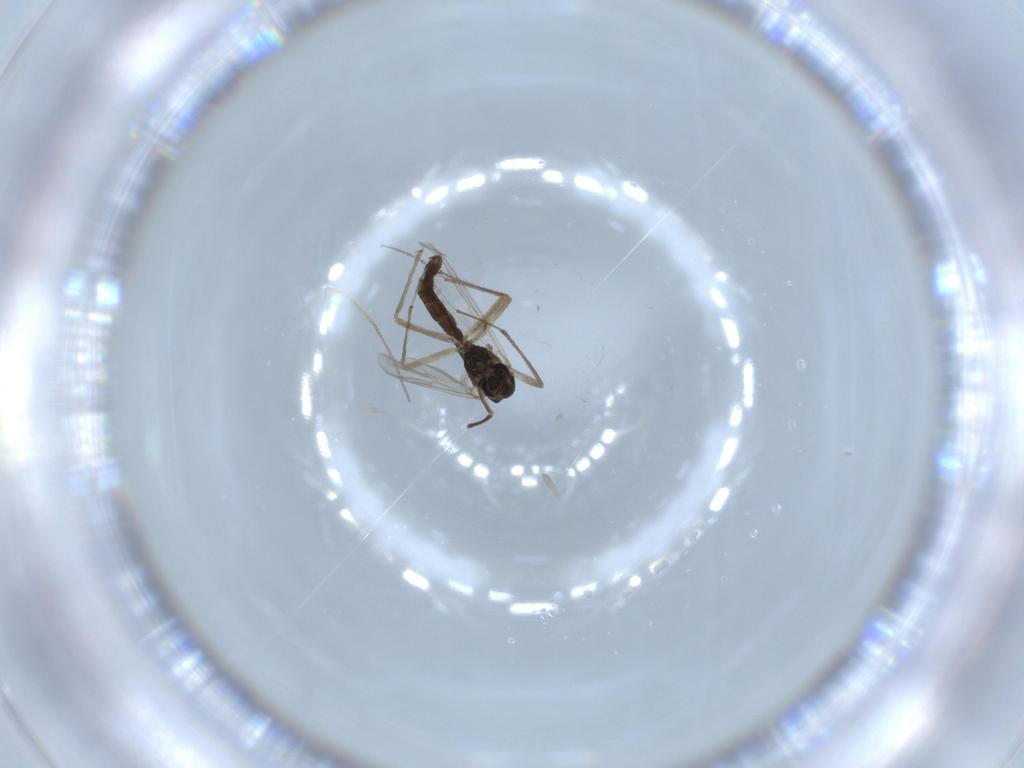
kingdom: Animalia
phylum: Arthropoda
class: Insecta
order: Diptera
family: Chironomidae
